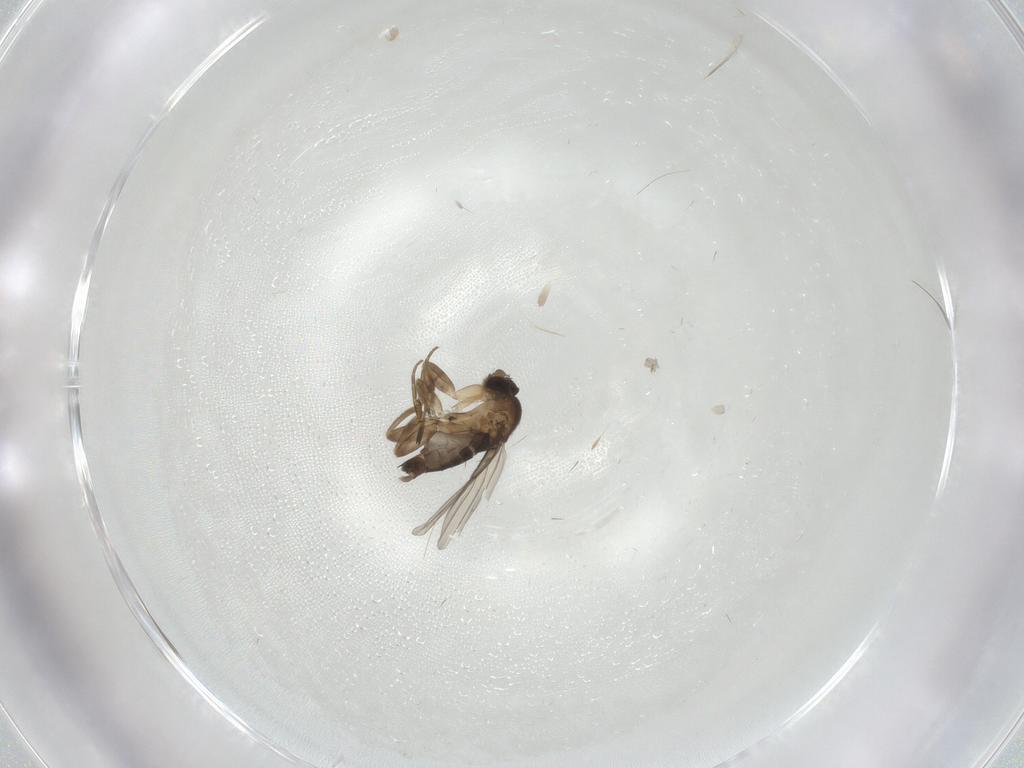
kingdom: Animalia
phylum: Arthropoda
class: Insecta
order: Diptera
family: Phoridae
